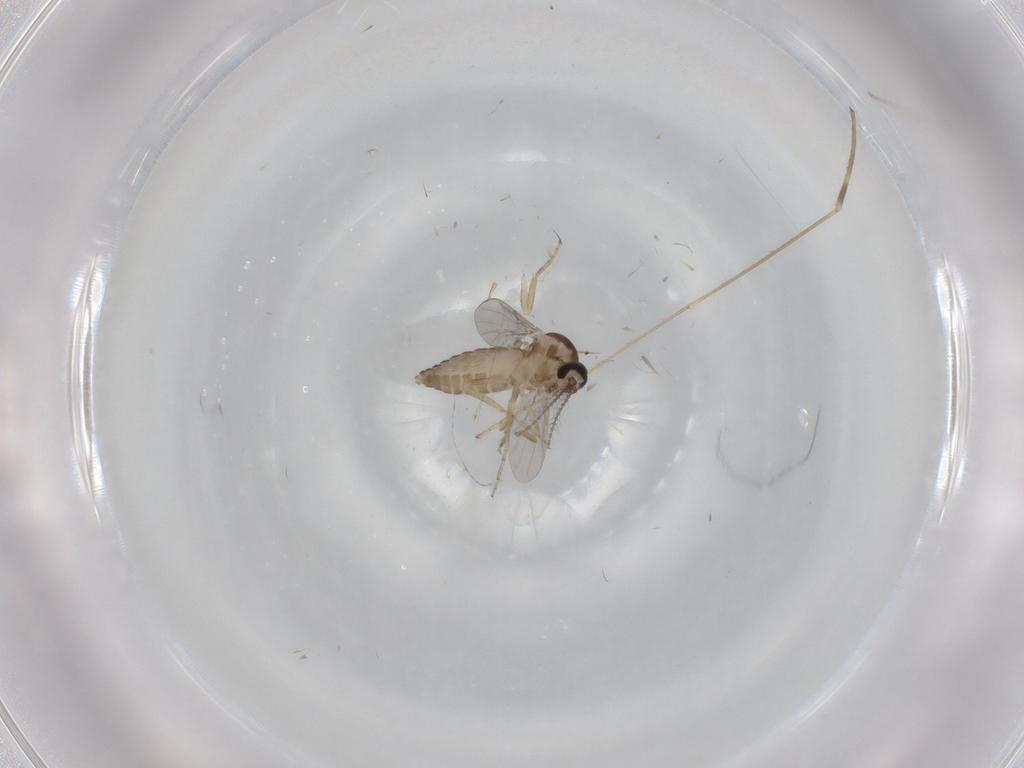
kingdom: Animalia
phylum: Arthropoda
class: Insecta
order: Diptera
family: Ceratopogonidae
